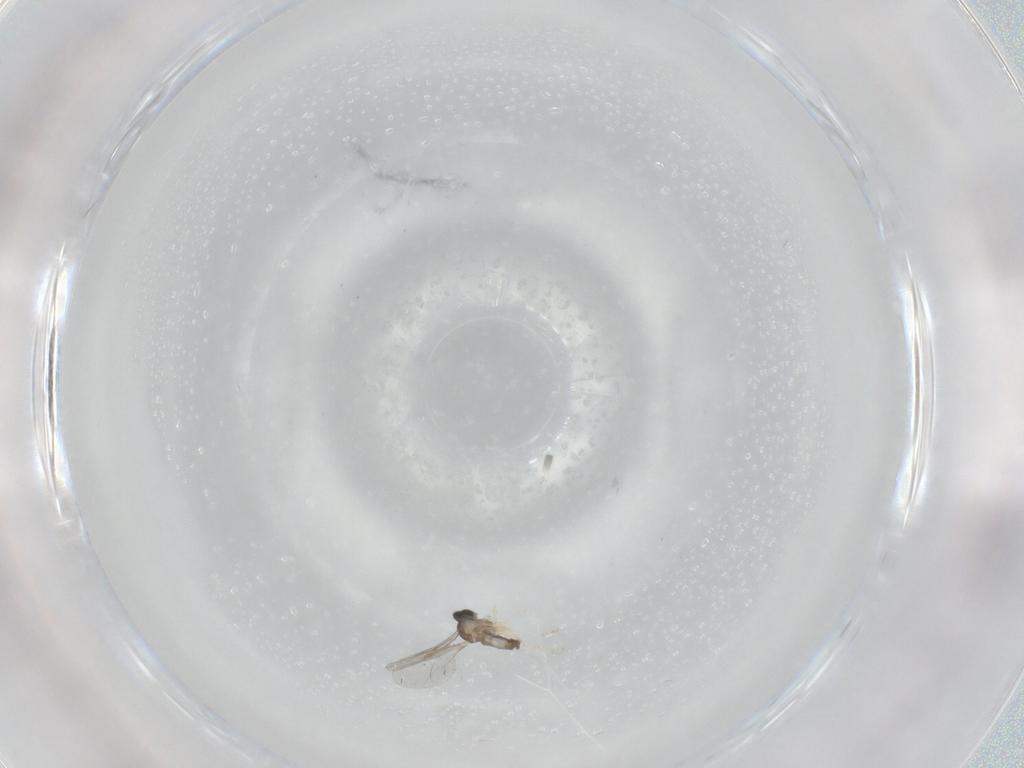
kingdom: Animalia
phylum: Arthropoda
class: Insecta
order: Diptera
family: Cecidomyiidae
